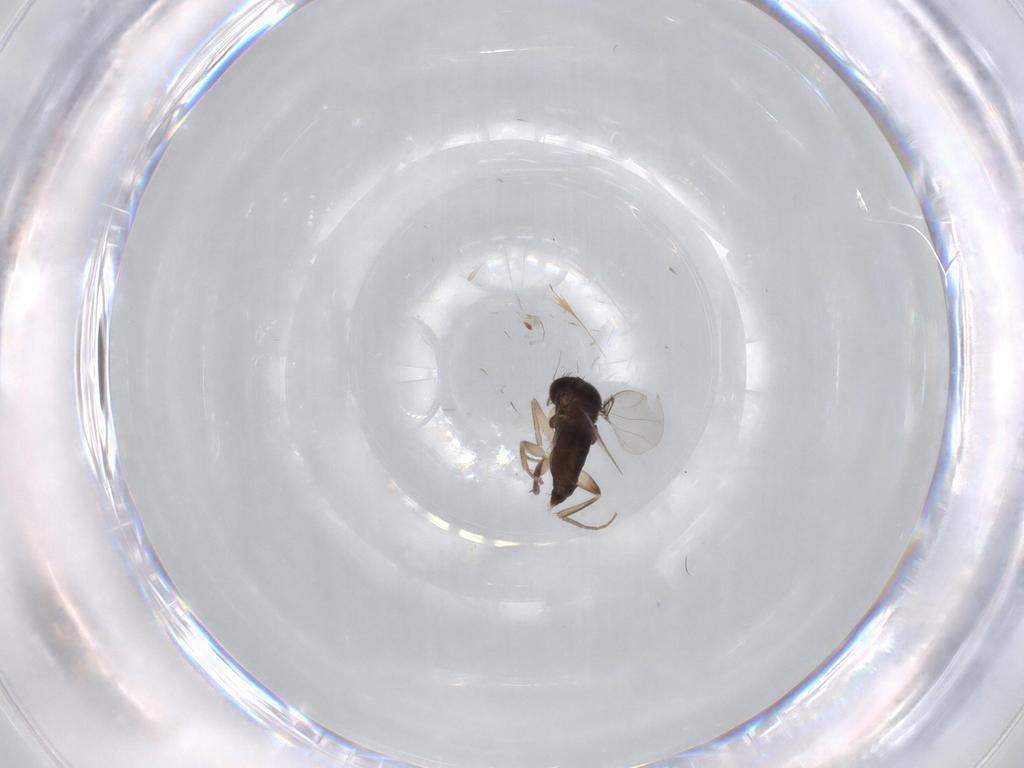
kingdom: Animalia
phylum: Arthropoda
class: Insecta
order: Diptera
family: Phoridae
